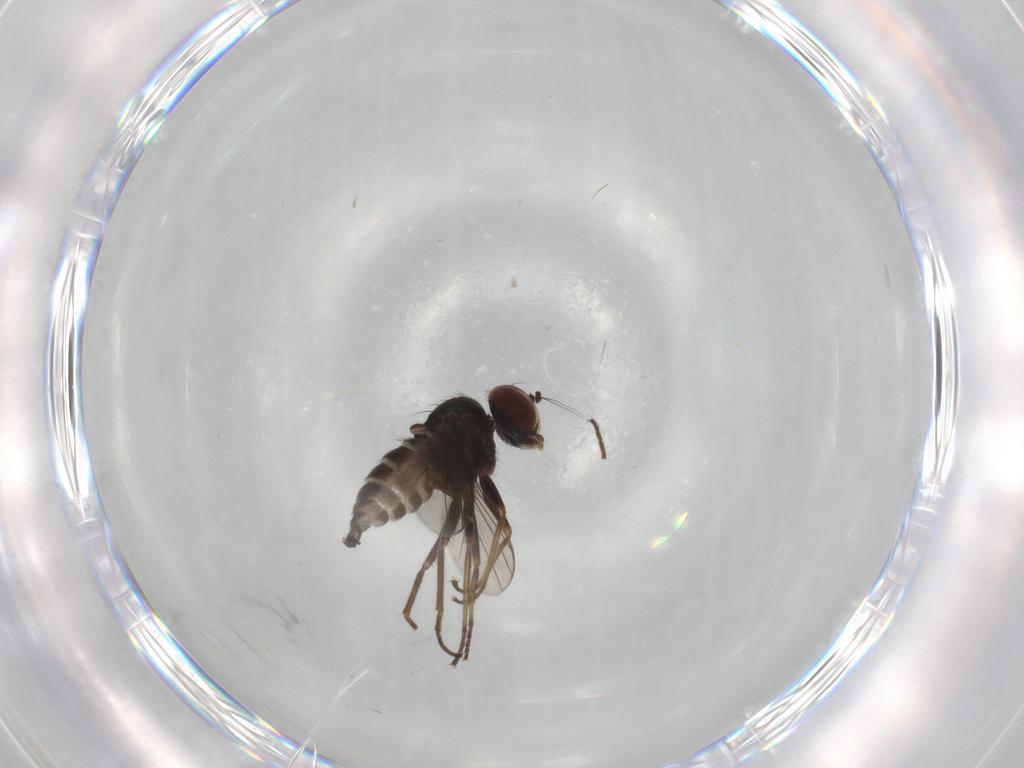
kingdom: Animalia
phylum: Arthropoda
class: Insecta
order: Diptera
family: Dolichopodidae
